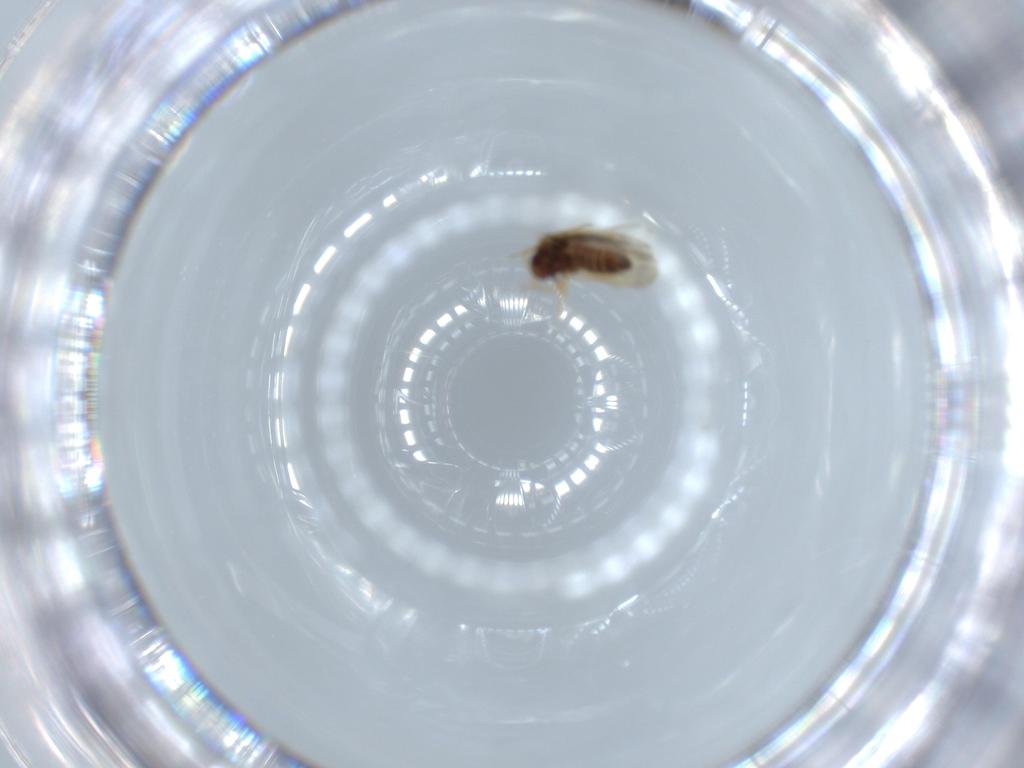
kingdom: Animalia
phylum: Arthropoda
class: Insecta
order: Hemiptera
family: Schizopteridae
